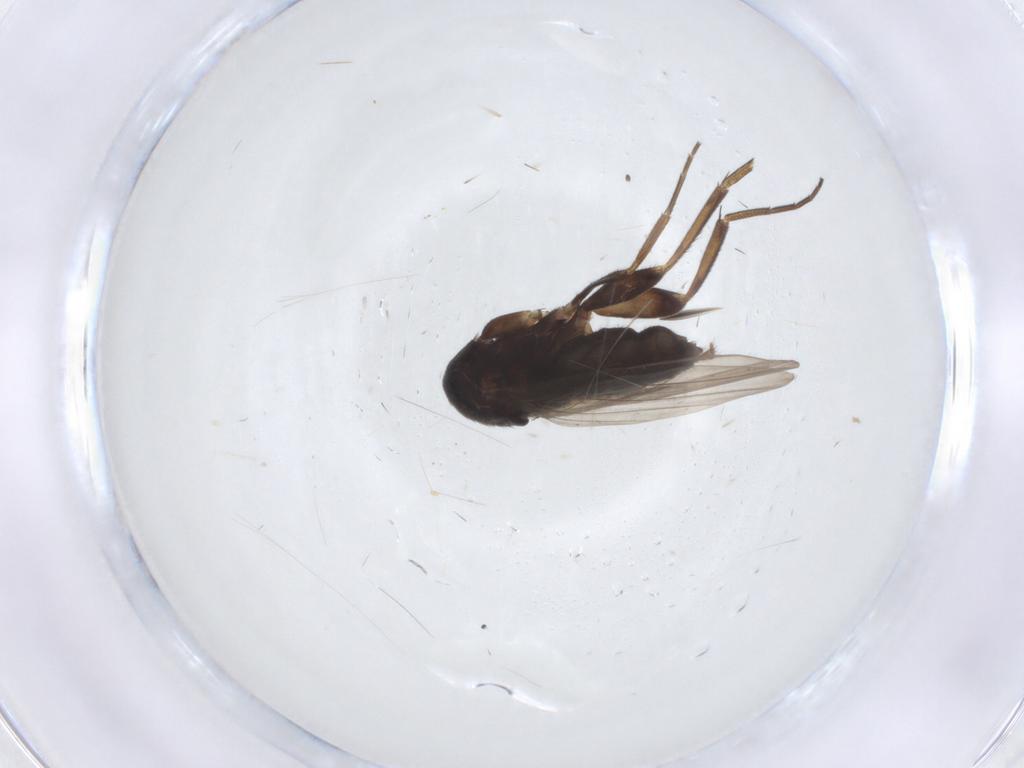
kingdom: Animalia
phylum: Arthropoda
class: Insecta
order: Diptera
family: Phoridae
